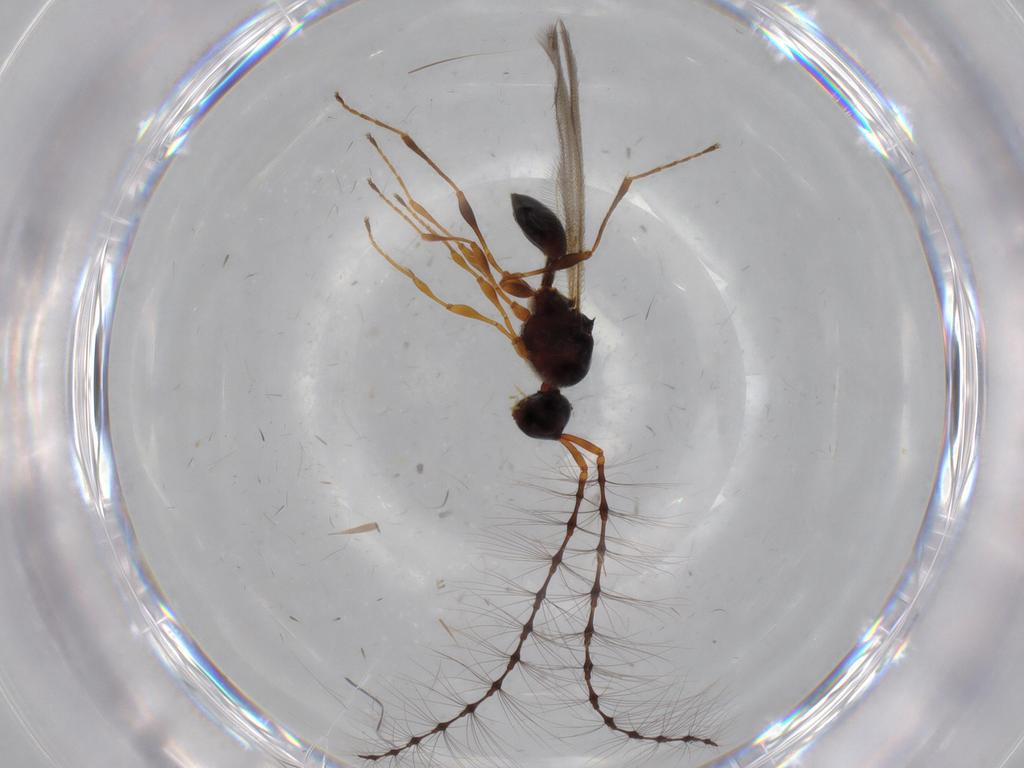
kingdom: Animalia
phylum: Arthropoda
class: Insecta
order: Hymenoptera
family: Diapriidae
